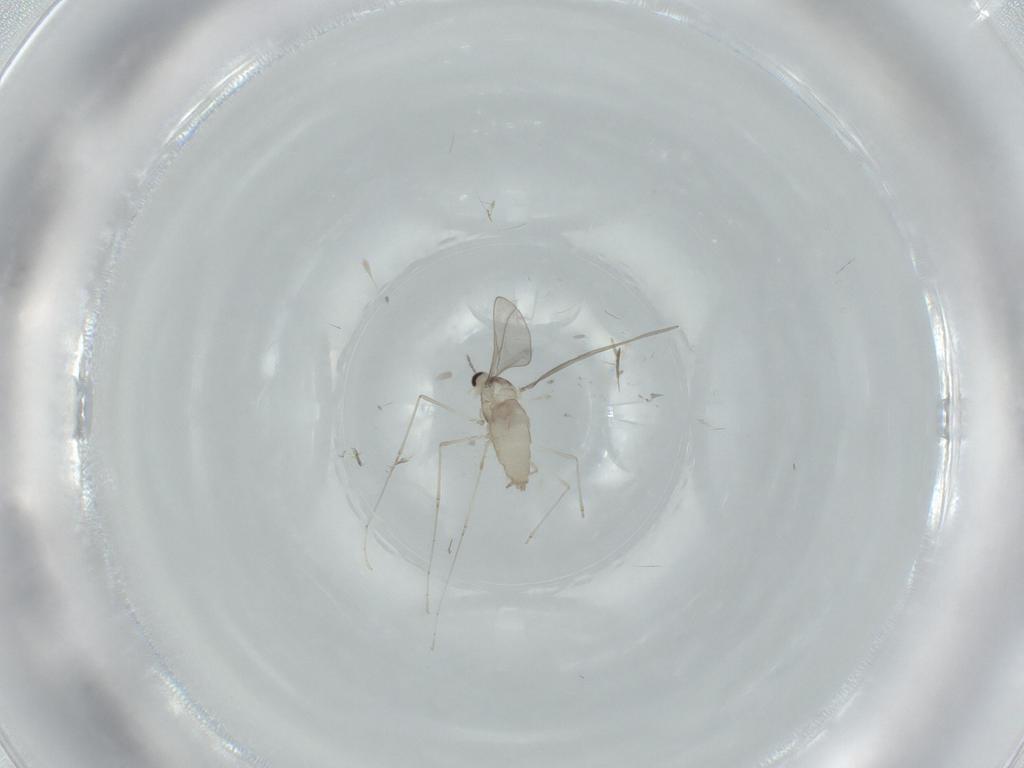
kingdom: Animalia
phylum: Arthropoda
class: Insecta
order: Diptera
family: Cecidomyiidae
